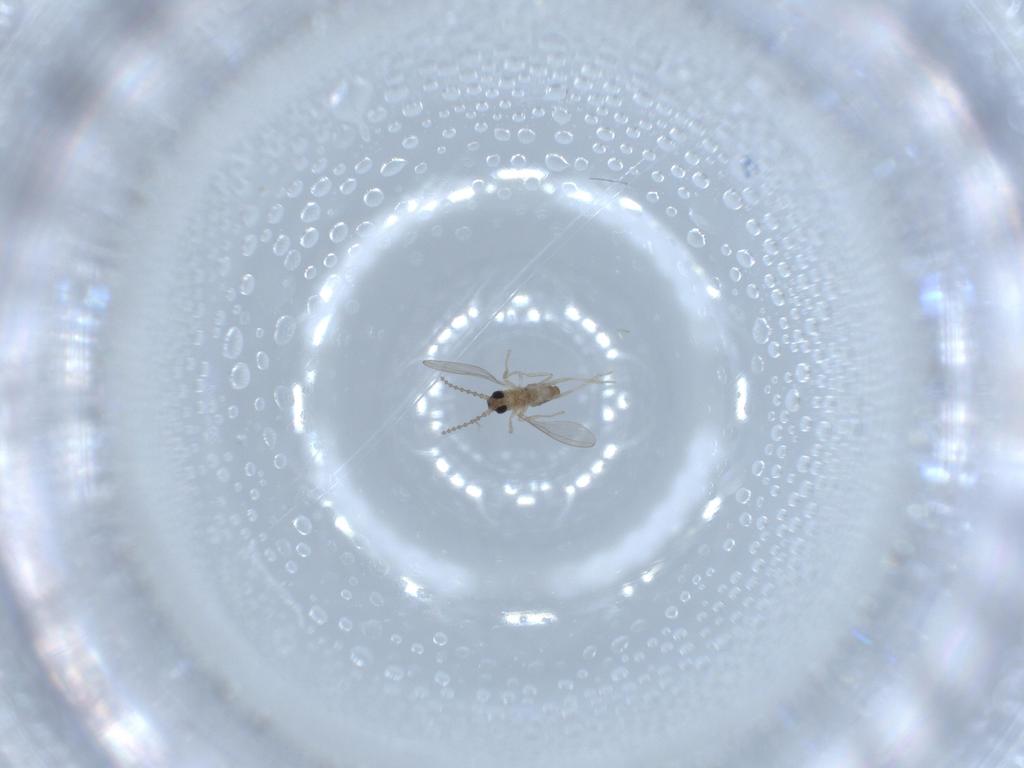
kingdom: Animalia
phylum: Arthropoda
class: Insecta
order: Diptera
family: Cecidomyiidae
